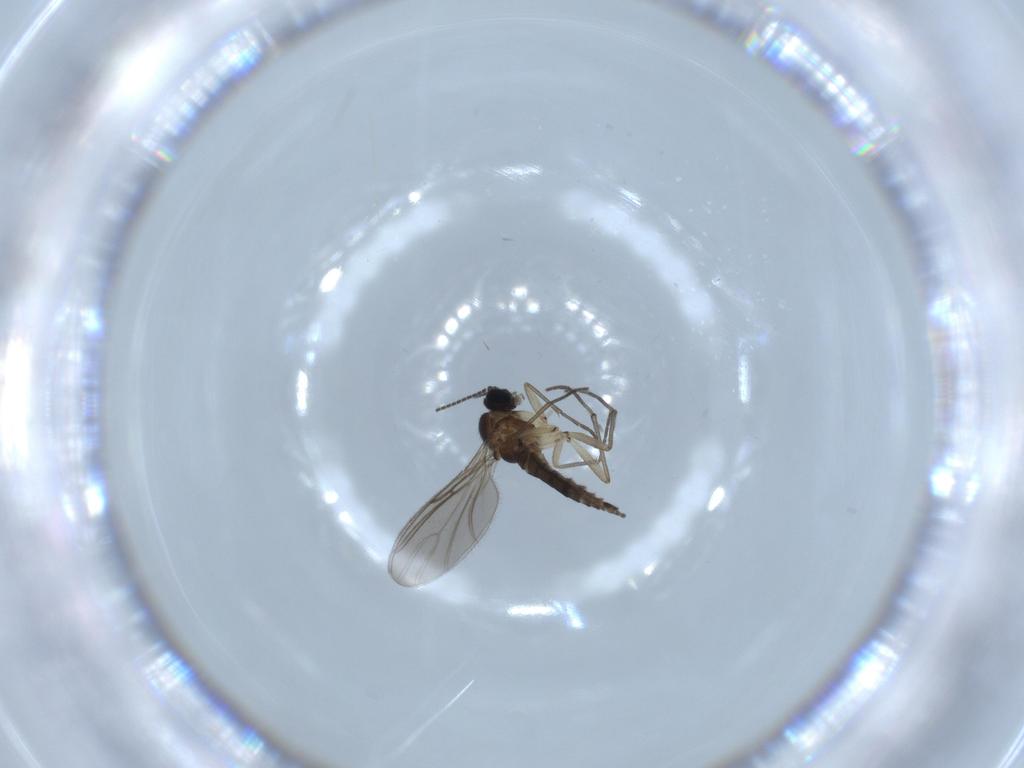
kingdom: Animalia
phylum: Arthropoda
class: Insecta
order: Diptera
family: Sciaridae
